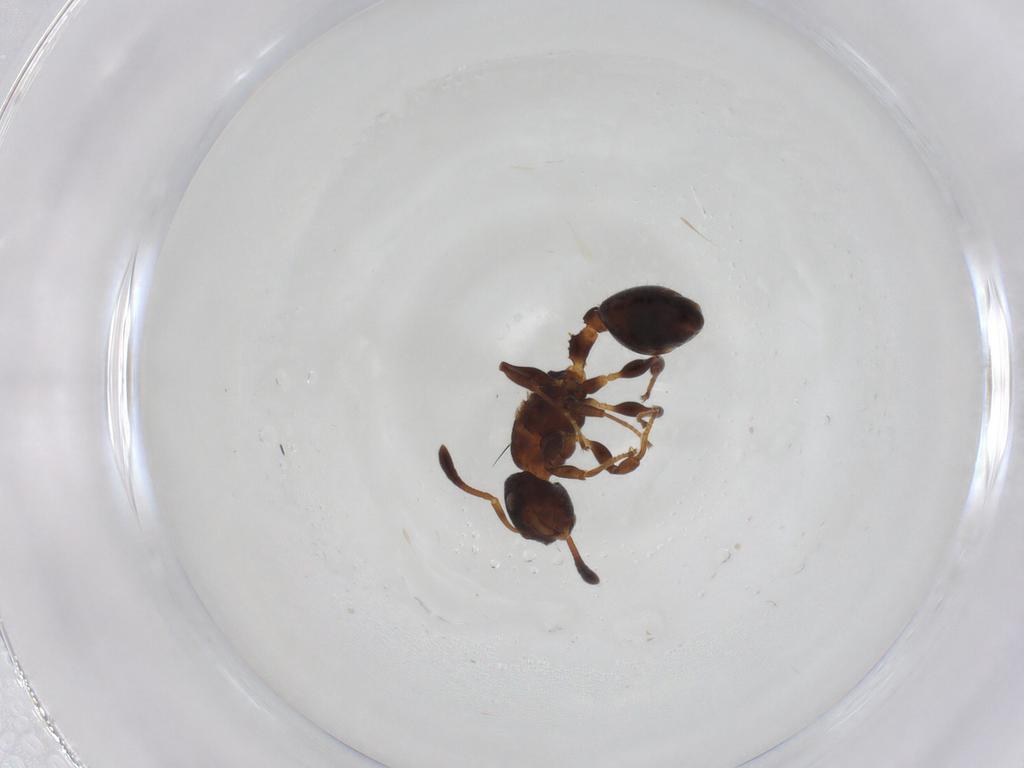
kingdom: Animalia
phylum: Arthropoda
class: Insecta
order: Hymenoptera
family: Formicidae
